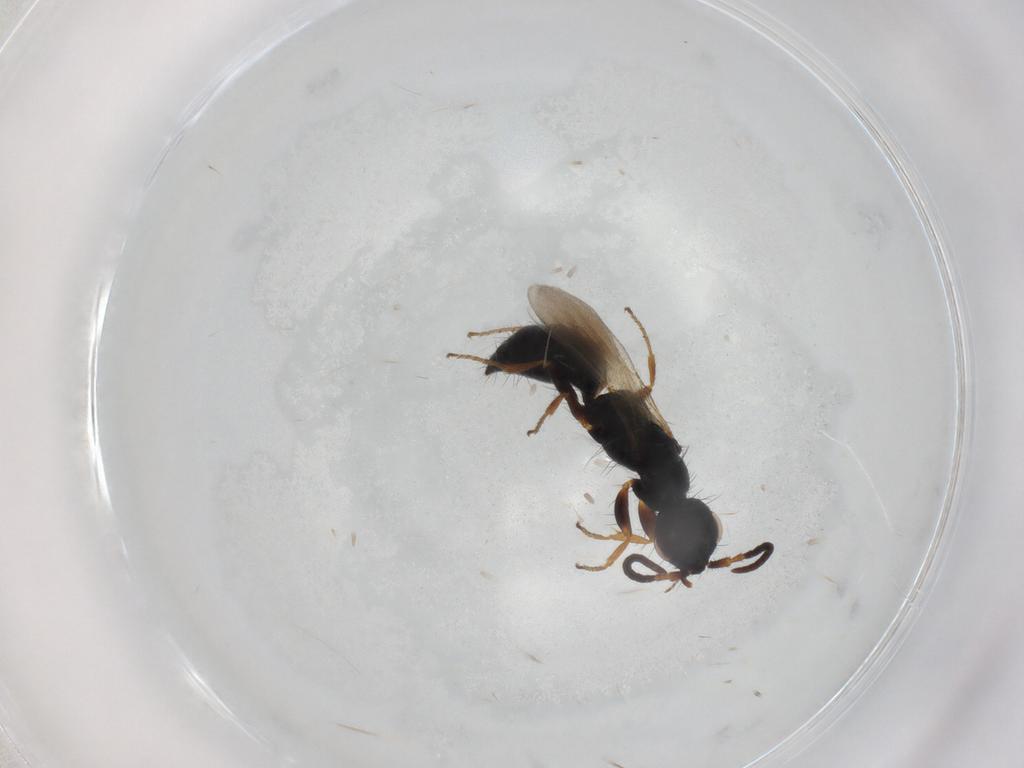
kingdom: Animalia
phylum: Arthropoda
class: Insecta
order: Hymenoptera
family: Bethylidae
